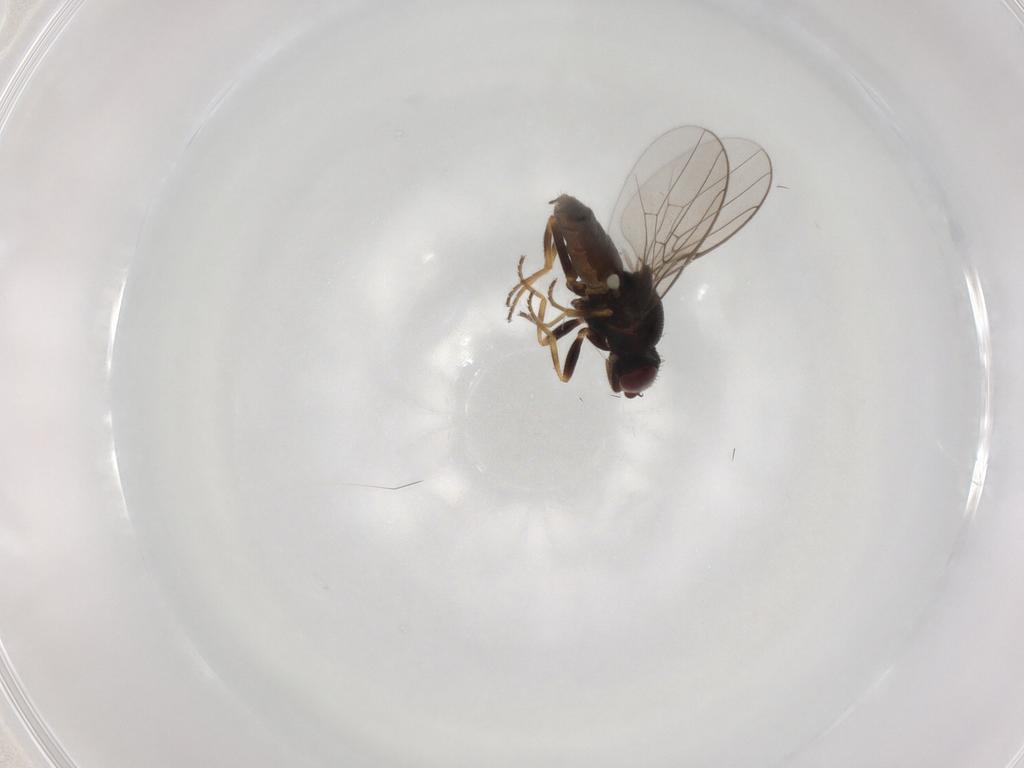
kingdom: Animalia
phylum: Arthropoda
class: Insecta
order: Diptera
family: Chloropidae
